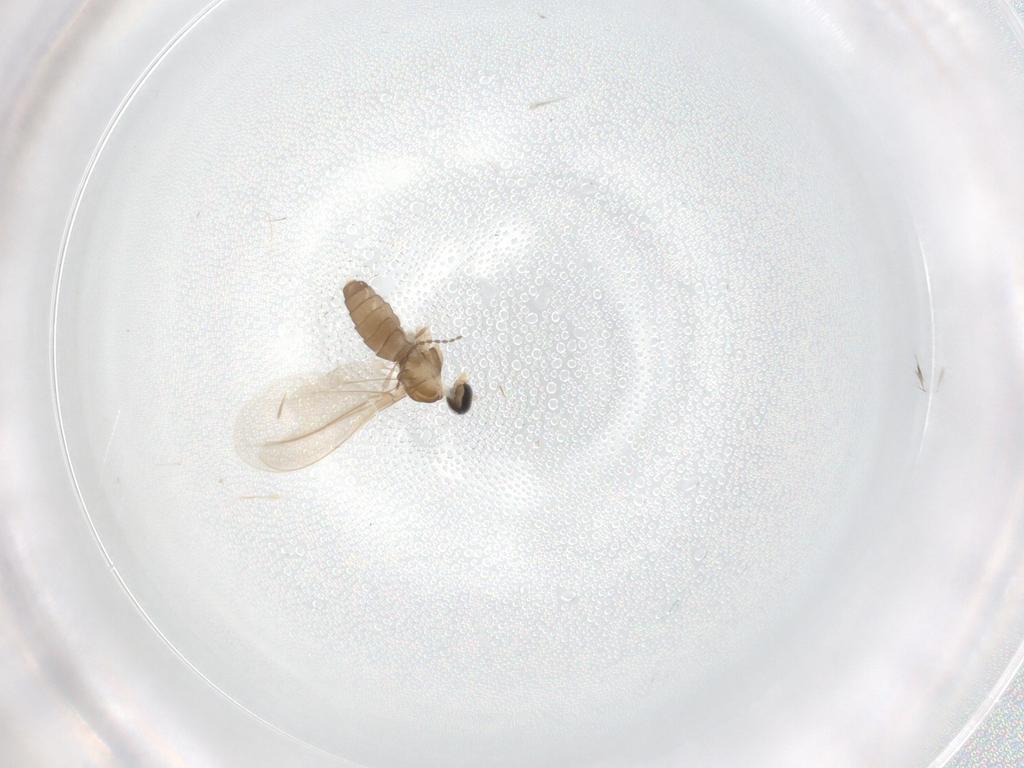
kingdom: Animalia
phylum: Arthropoda
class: Insecta
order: Diptera
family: Cecidomyiidae
